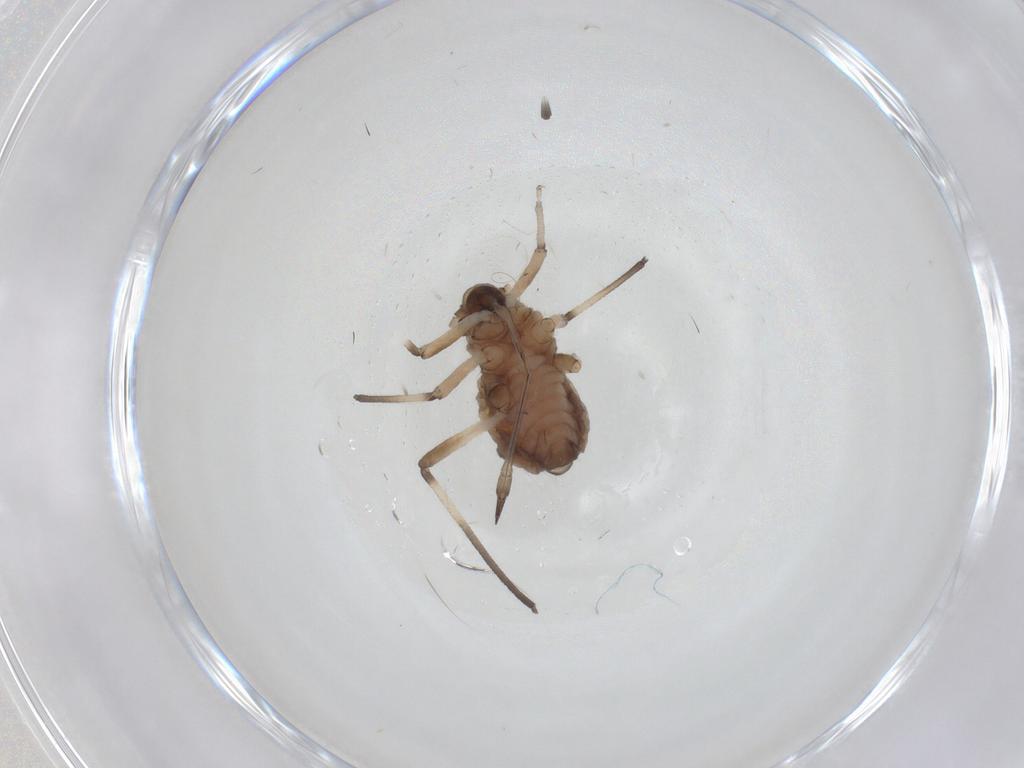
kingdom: Animalia
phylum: Arthropoda
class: Insecta
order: Hemiptera
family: Aphididae
